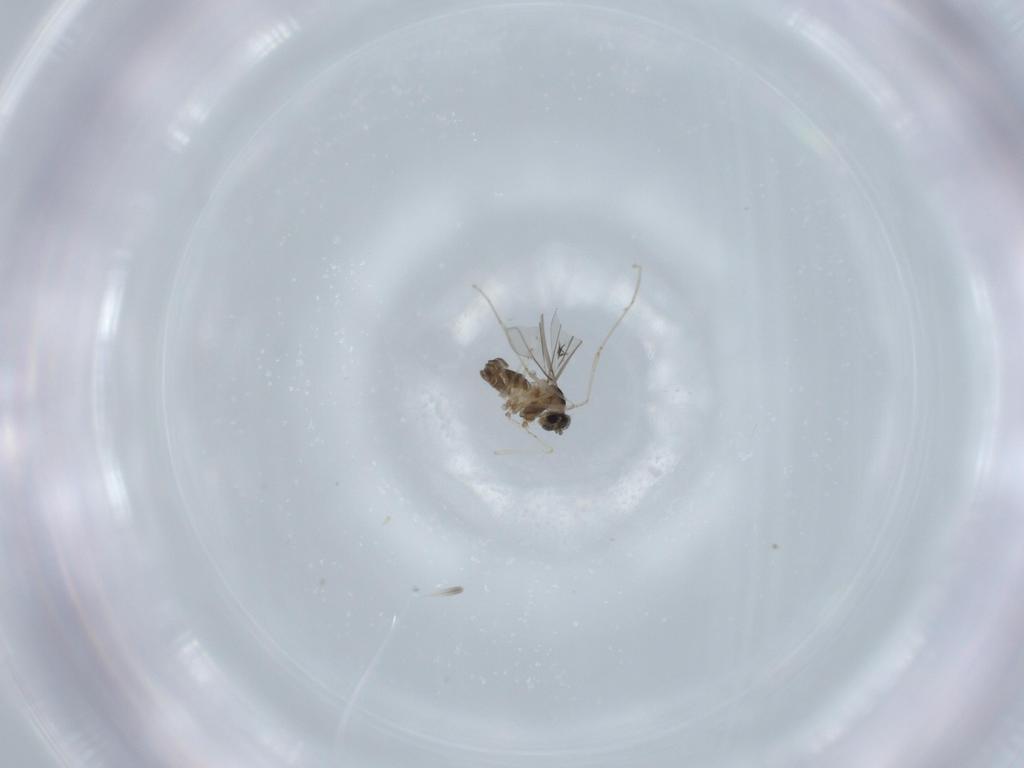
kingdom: Animalia
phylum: Arthropoda
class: Insecta
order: Diptera
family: Cecidomyiidae
